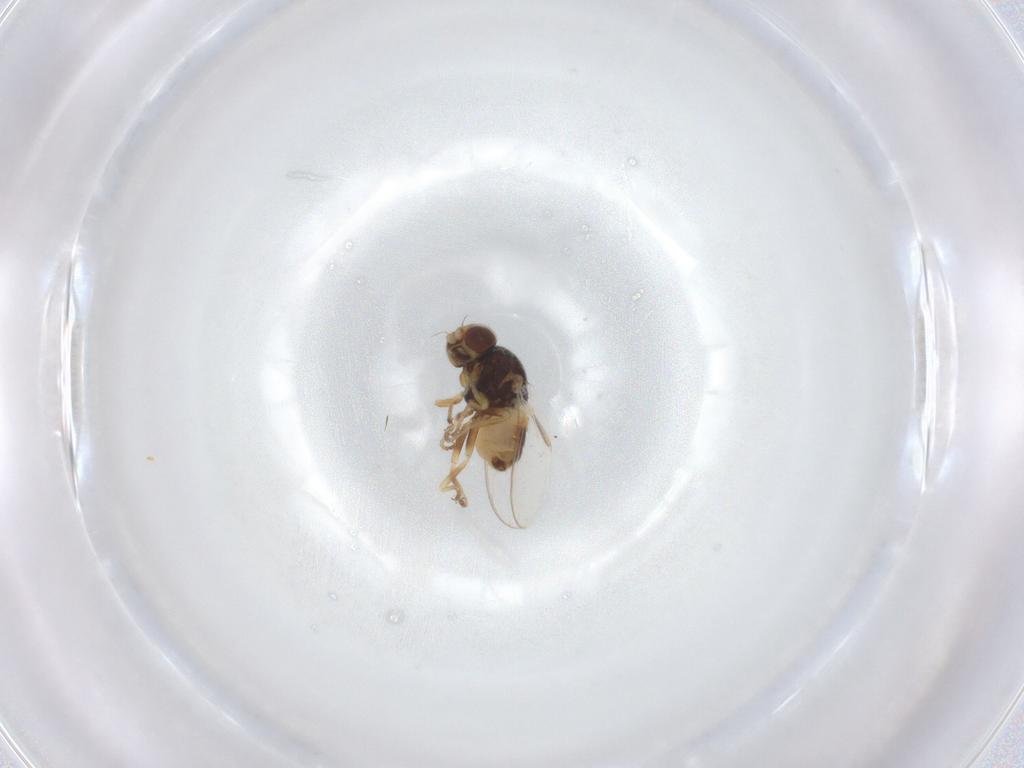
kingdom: Animalia
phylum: Arthropoda
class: Insecta
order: Diptera
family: Chloropidae
